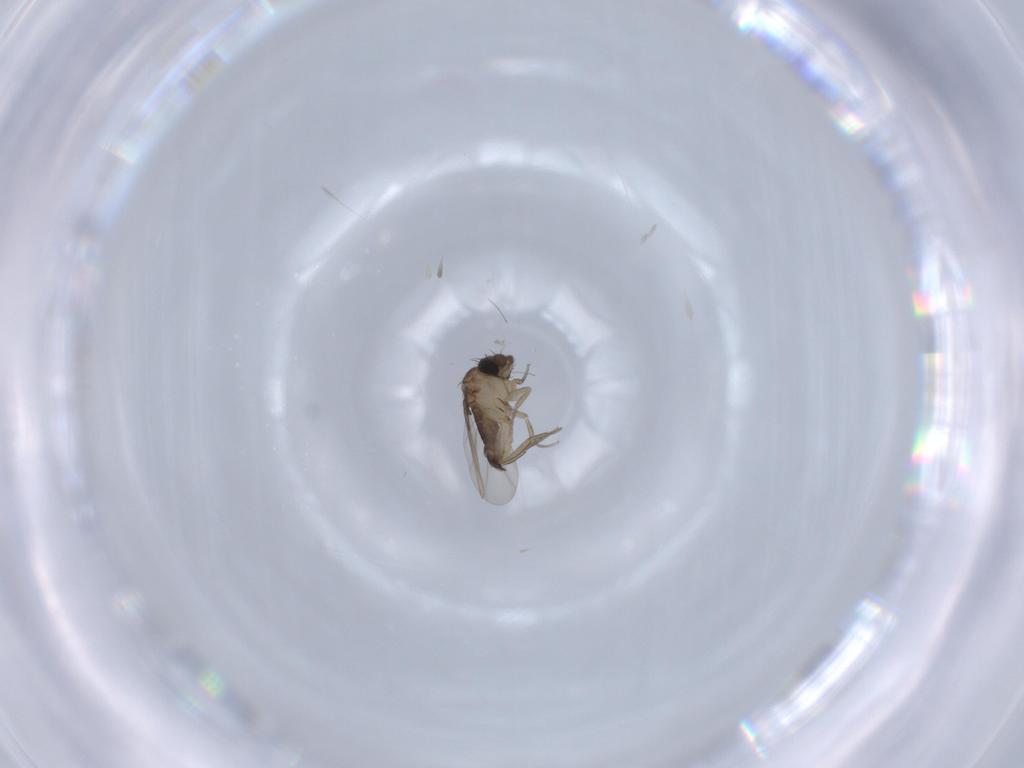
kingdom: Animalia
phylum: Arthropoda
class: Insecta
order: Diptera
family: Phoridae
